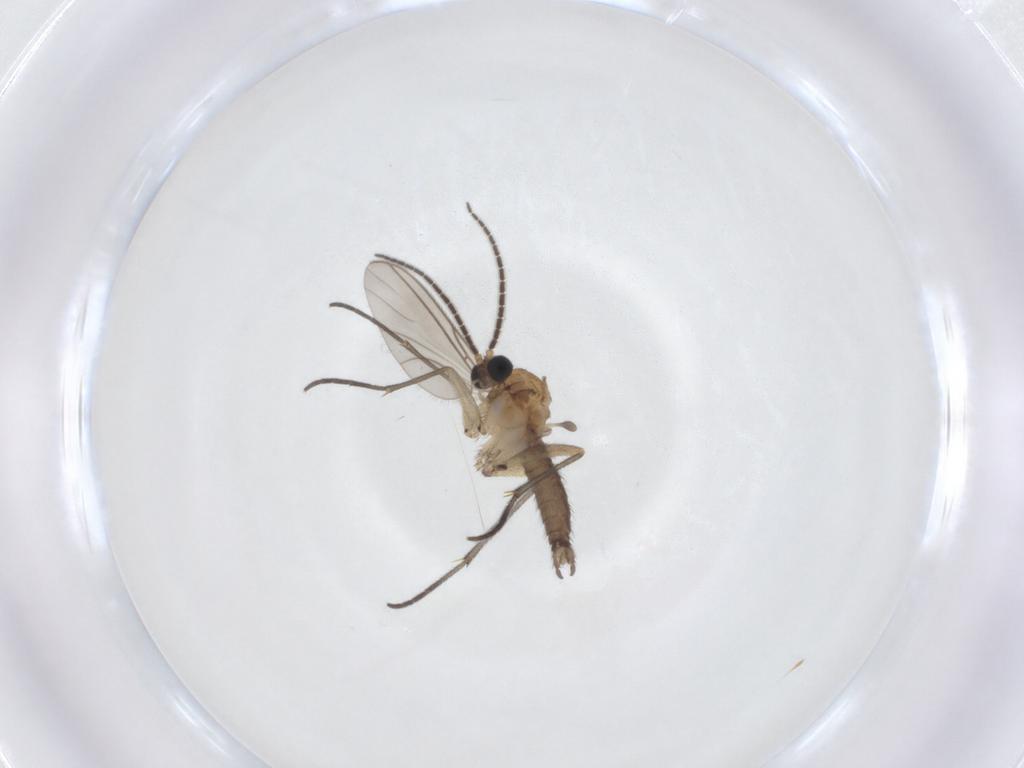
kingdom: Animalia
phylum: Arthropoda
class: Insecta
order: Diptera
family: Sciaridae
